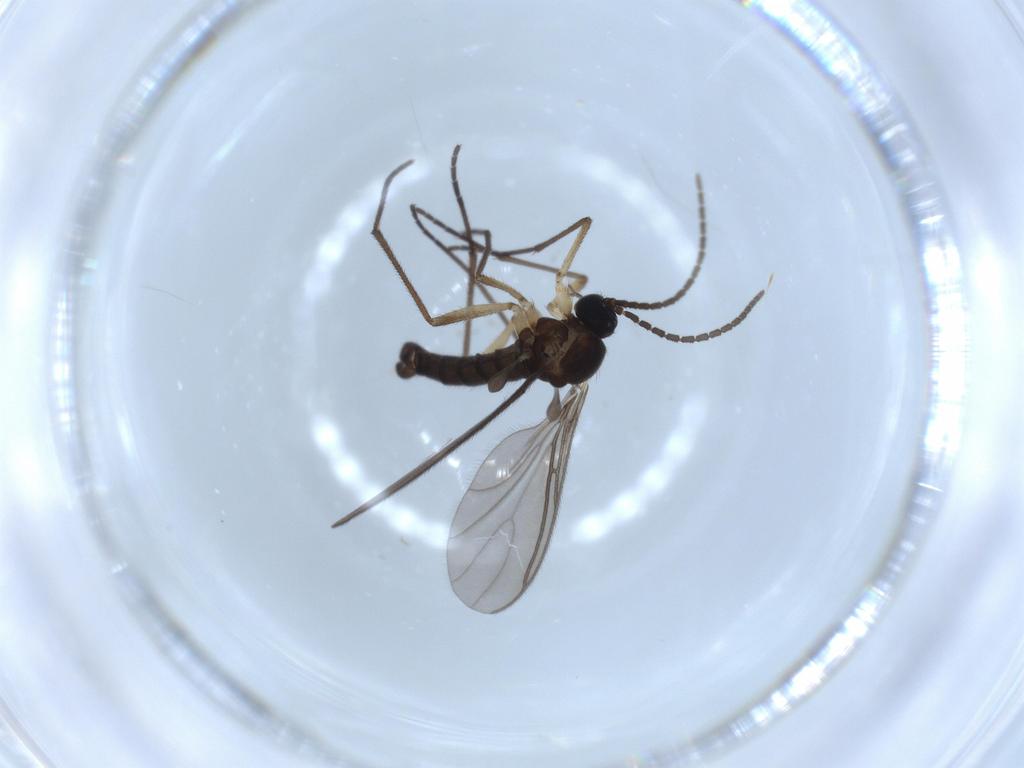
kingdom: Animalia
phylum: Arthropoda
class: Insecta
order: Diptera
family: Sciaridae
